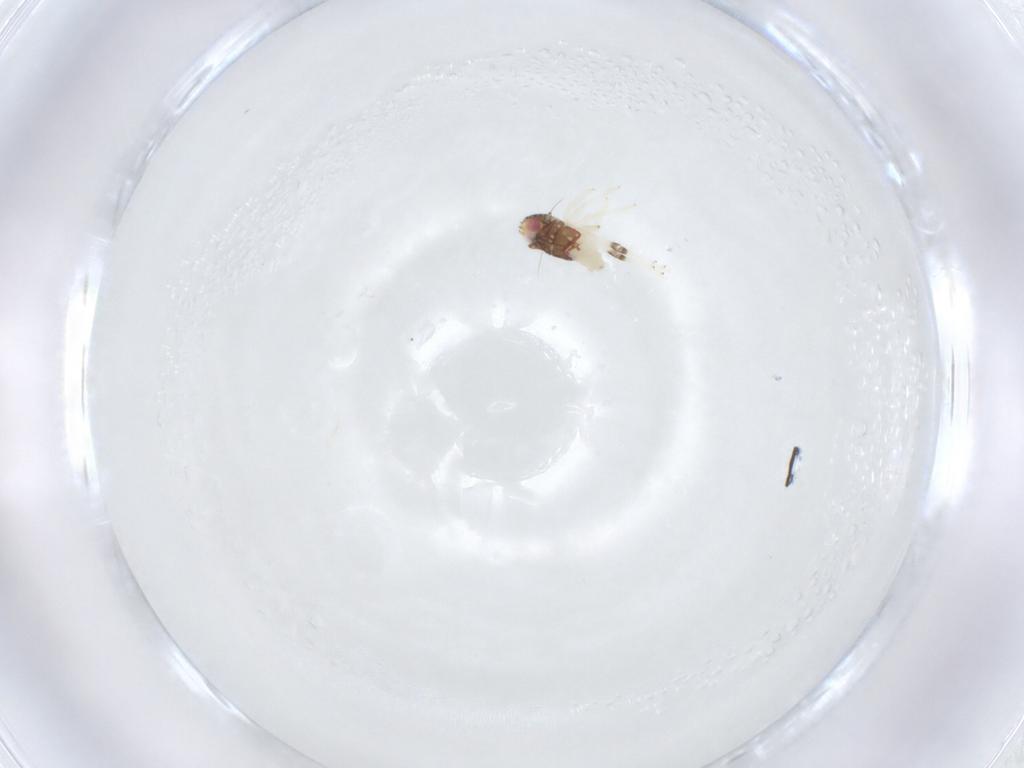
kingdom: Animalia
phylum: Arthropoda
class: Insecta
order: Hemiptera
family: Nogodinidae
